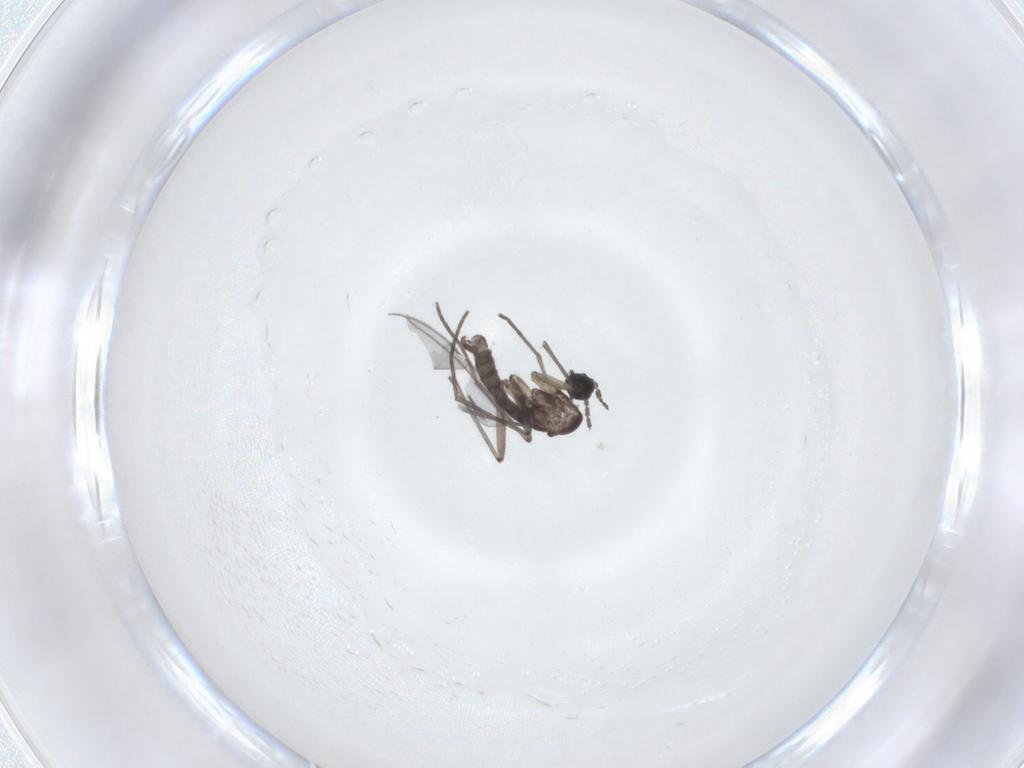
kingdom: Animalia
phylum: Arthropoda
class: Insecta
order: Diptera
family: Sciaridae
